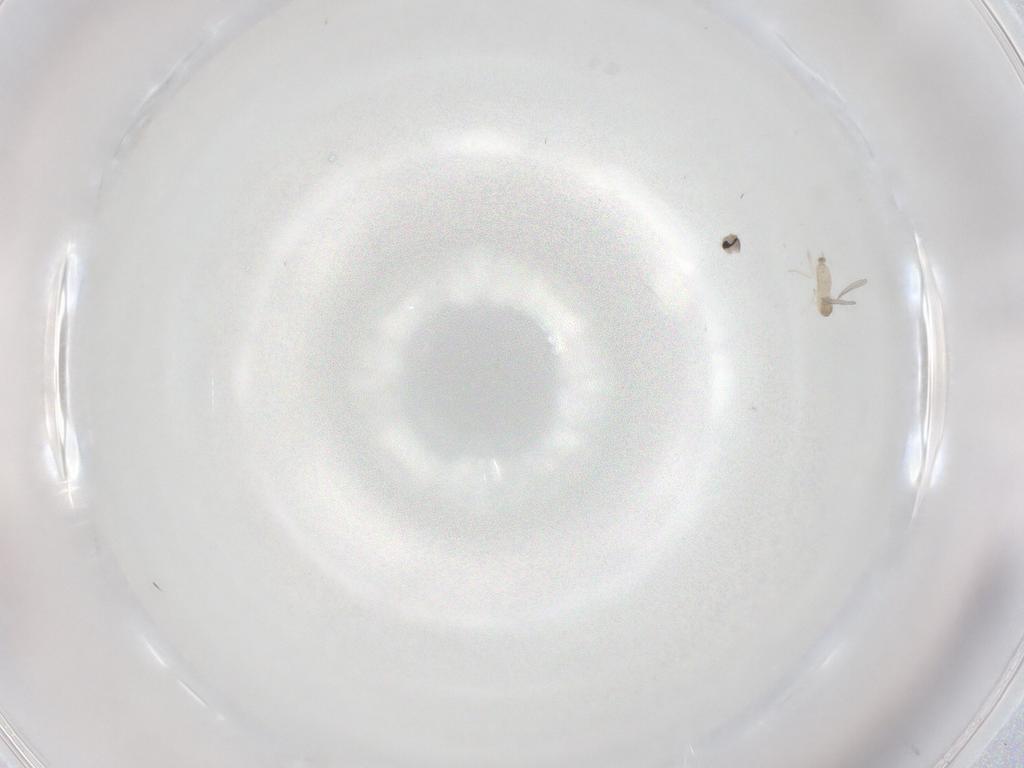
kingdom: Animalia
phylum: Arthropoda
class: Insecta
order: Diptera
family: Cecidomyiidae
